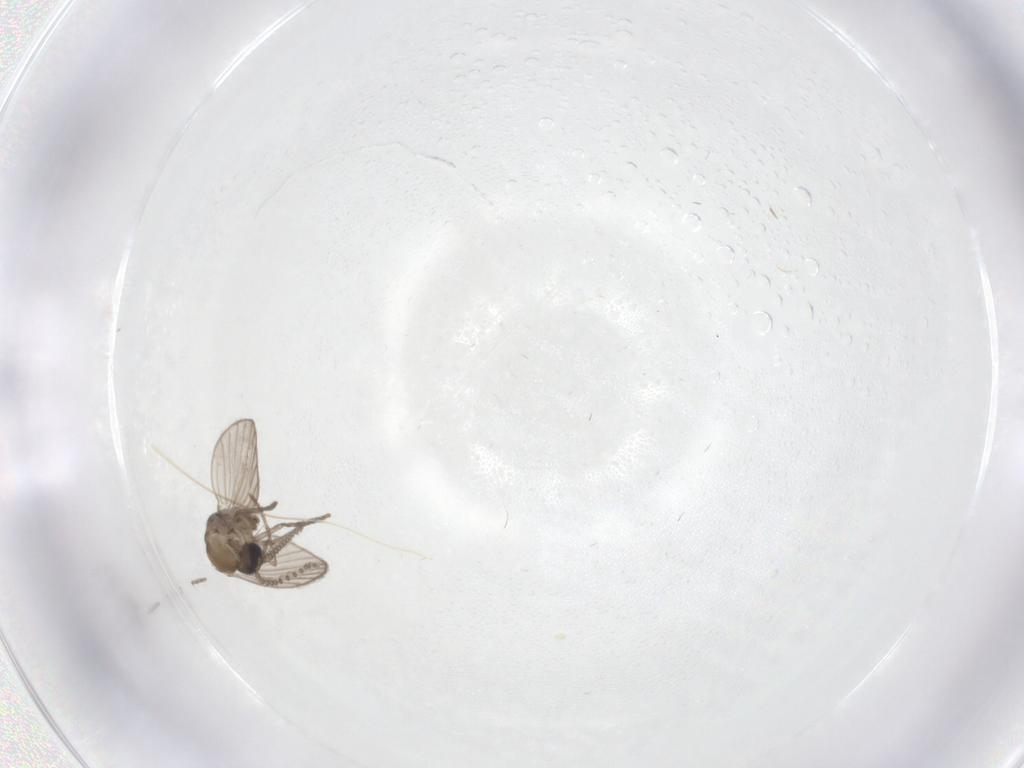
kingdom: Animalia
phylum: Arthropoda
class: Insecta
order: Diptera
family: Psychodidae
